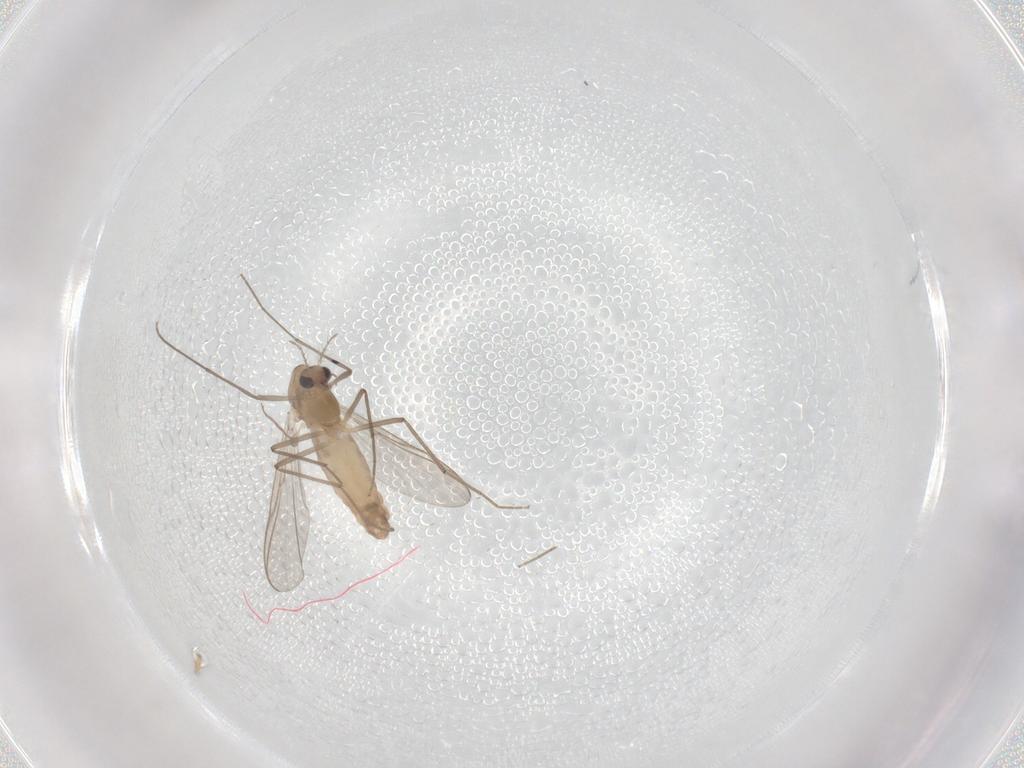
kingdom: Animalia
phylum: Arthropoda
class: Insecta
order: Diptera
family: Chironomidae
